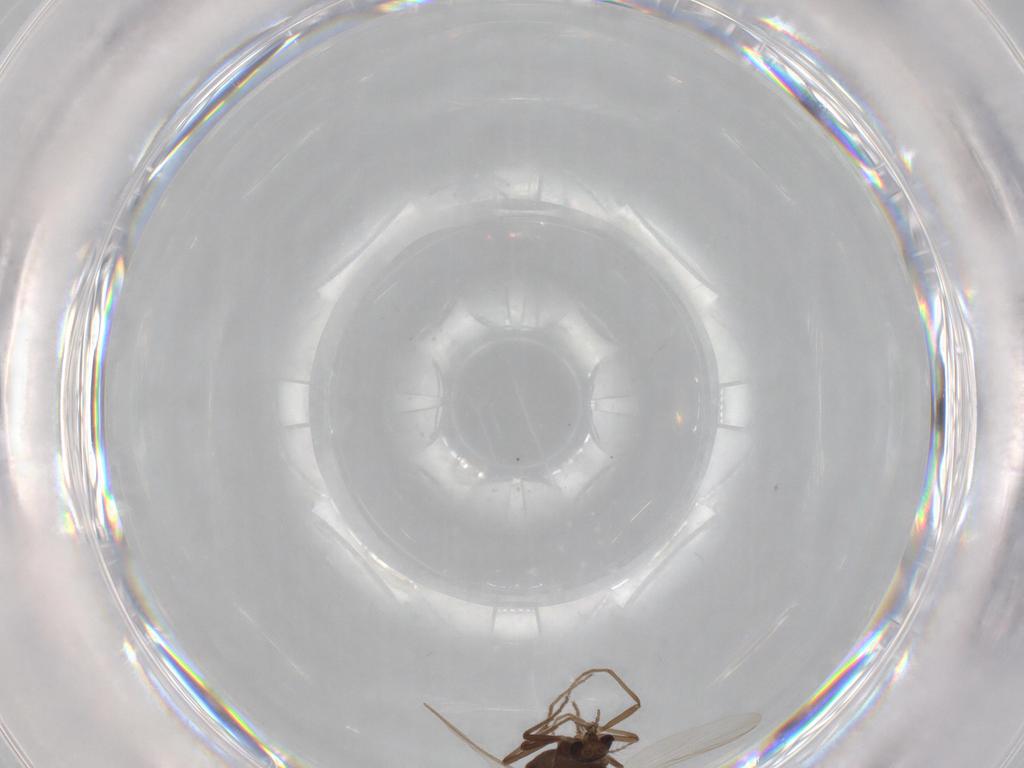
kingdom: Animalia
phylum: Arthropoda
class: Insecta
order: Diptera
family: Chironomidae
